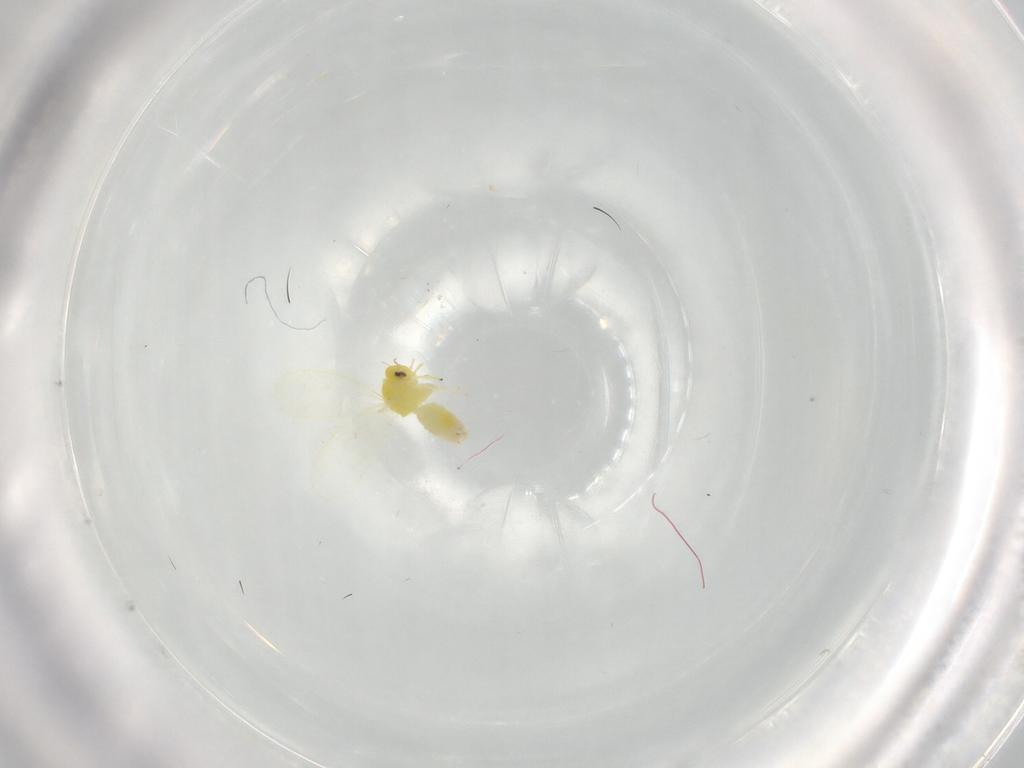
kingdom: Animalia
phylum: Arthropoda
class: Insecta
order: Hemiptera
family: Aleyrodidae
